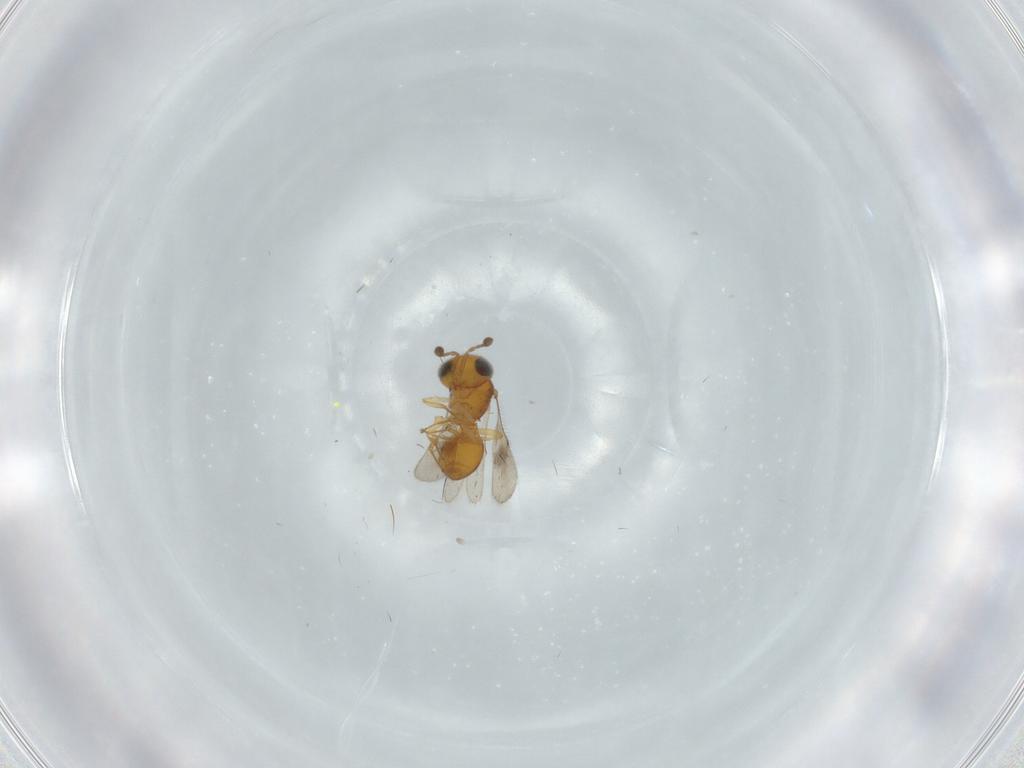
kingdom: Animalia
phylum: Arthropoda
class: Insecta
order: Hymenoptera
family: Scelionidae
